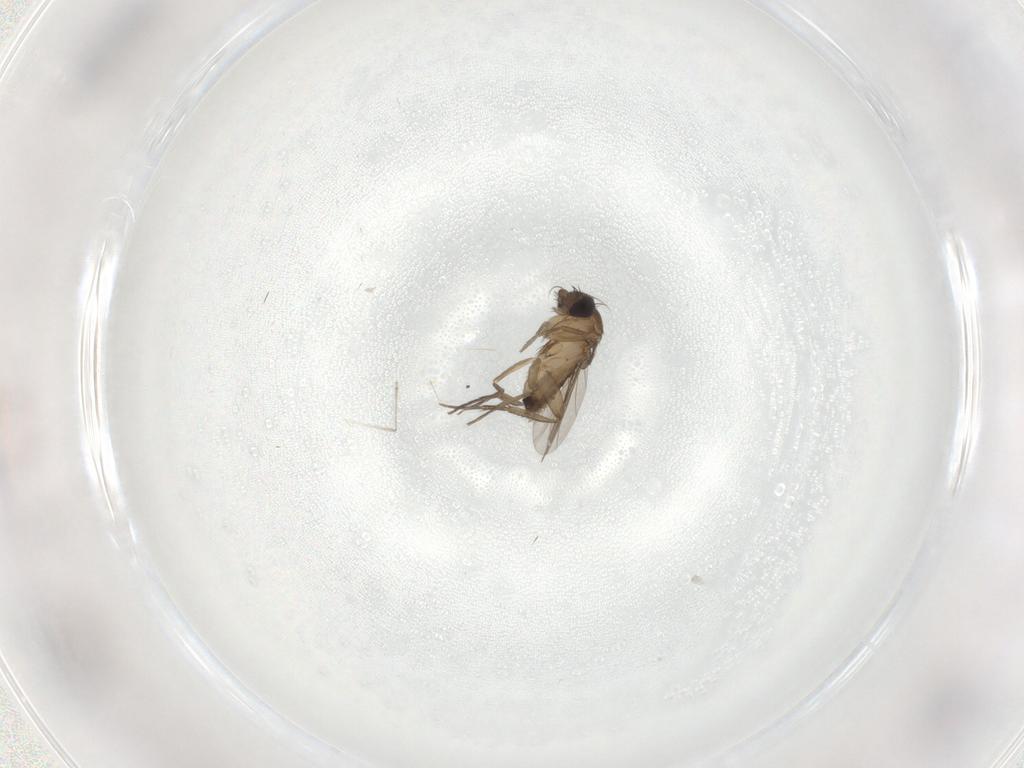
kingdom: Animalia
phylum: Arthropoda
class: Insecta
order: Diptera
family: Phoridae
